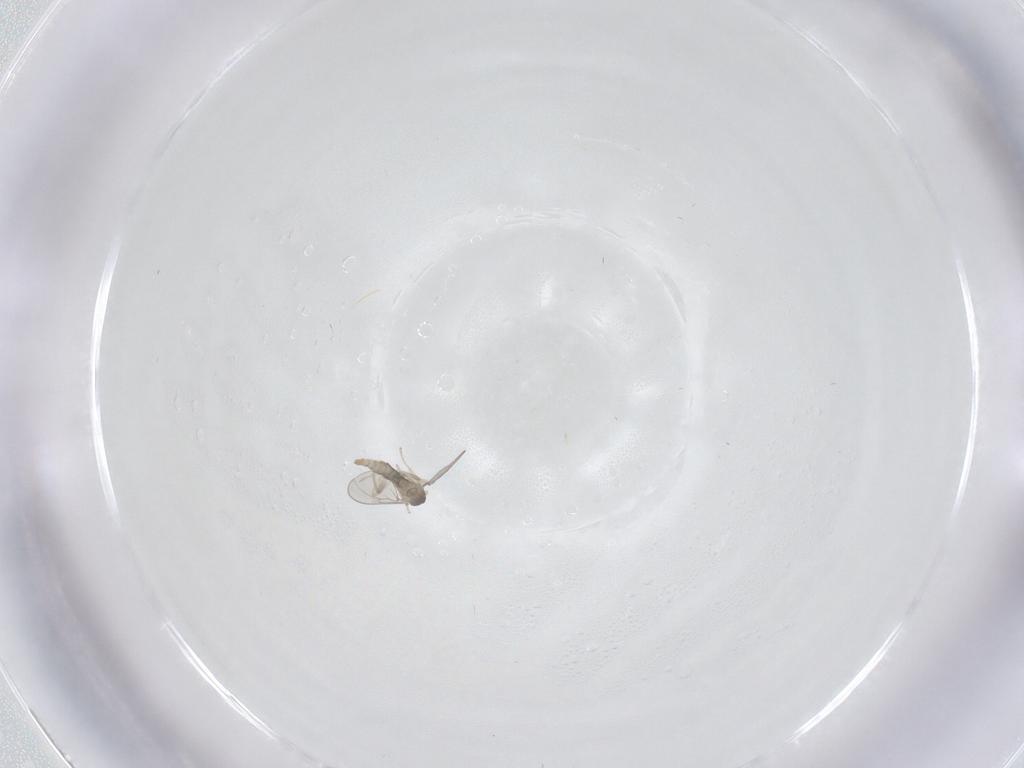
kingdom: Animalia
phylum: Arthropoda
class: Insecta
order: Diptera
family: Cecidomyiidae
